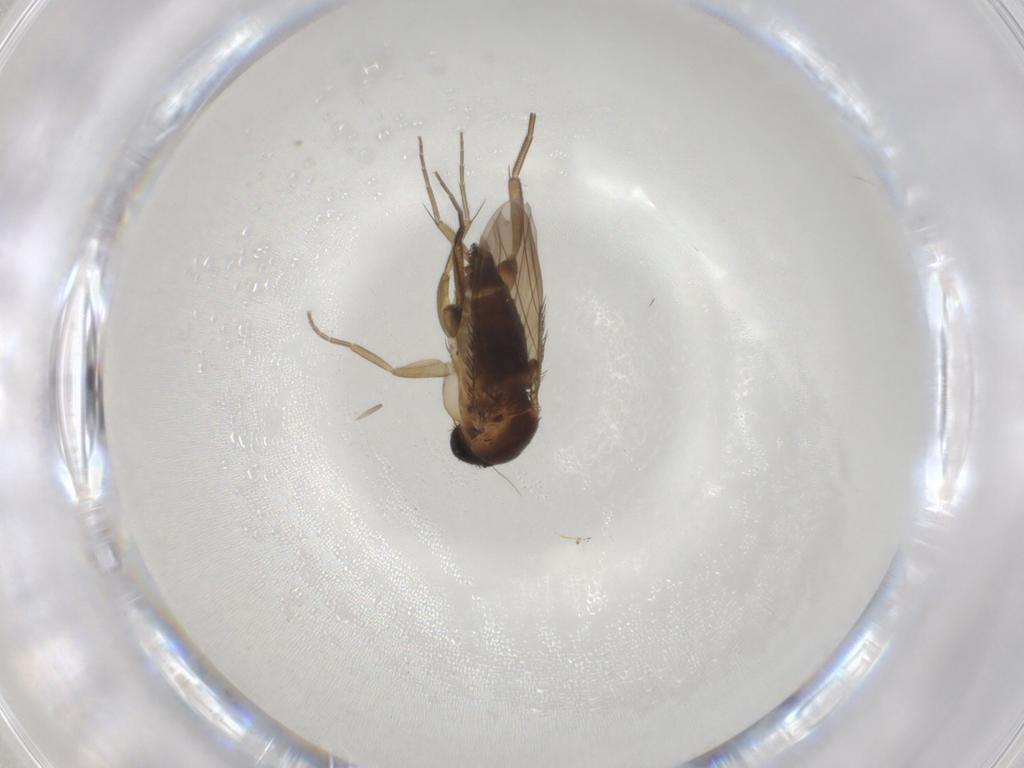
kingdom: Animalia
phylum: Arthropoda
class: Insecta
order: Diptera
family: Phoridae
